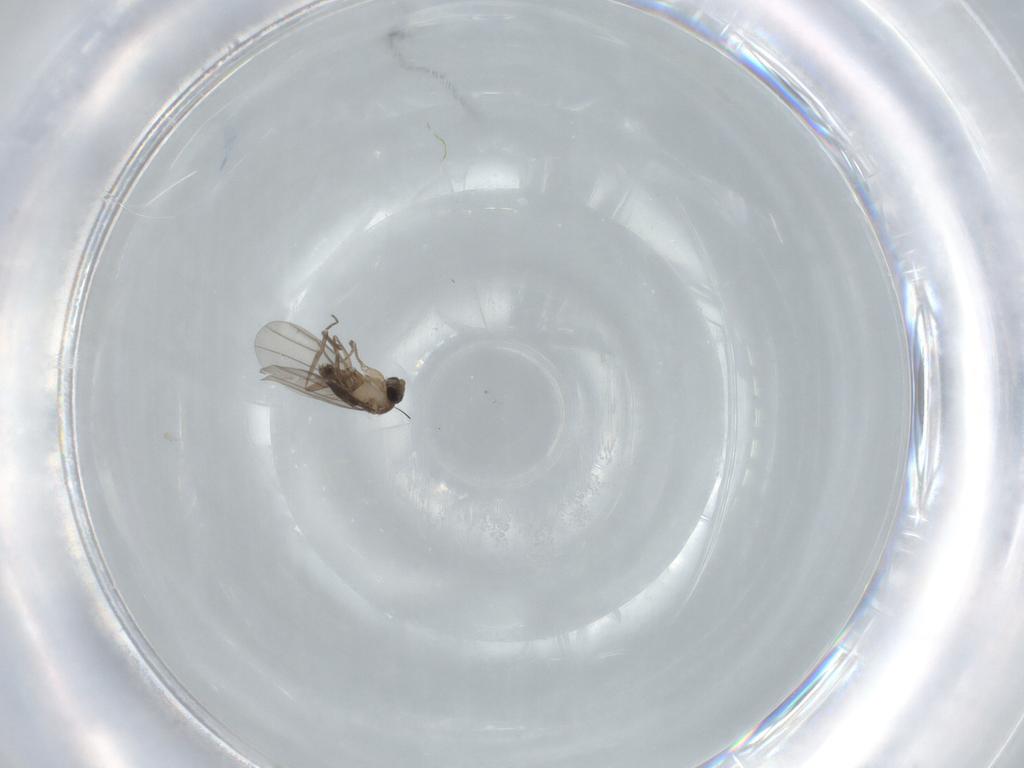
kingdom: Animalia
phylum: Arthropoda
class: Insecta
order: Diptera
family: Phoridae
